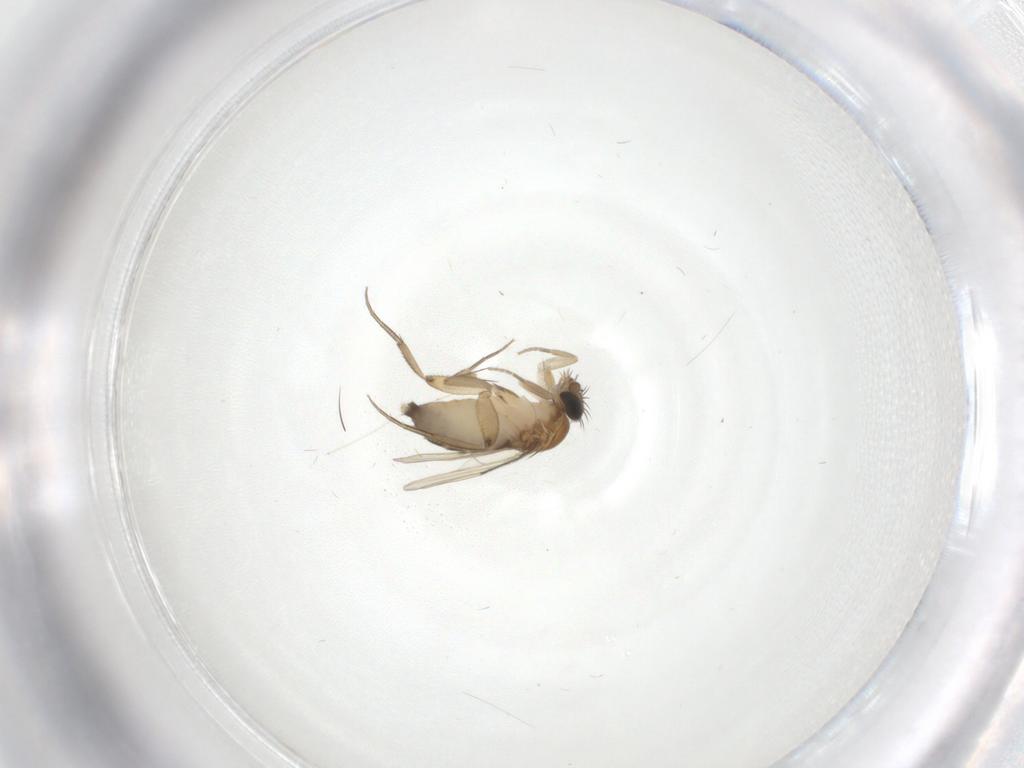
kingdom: Animalia
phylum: Arthropoda
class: Insecta
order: Diptera
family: Phoridae
